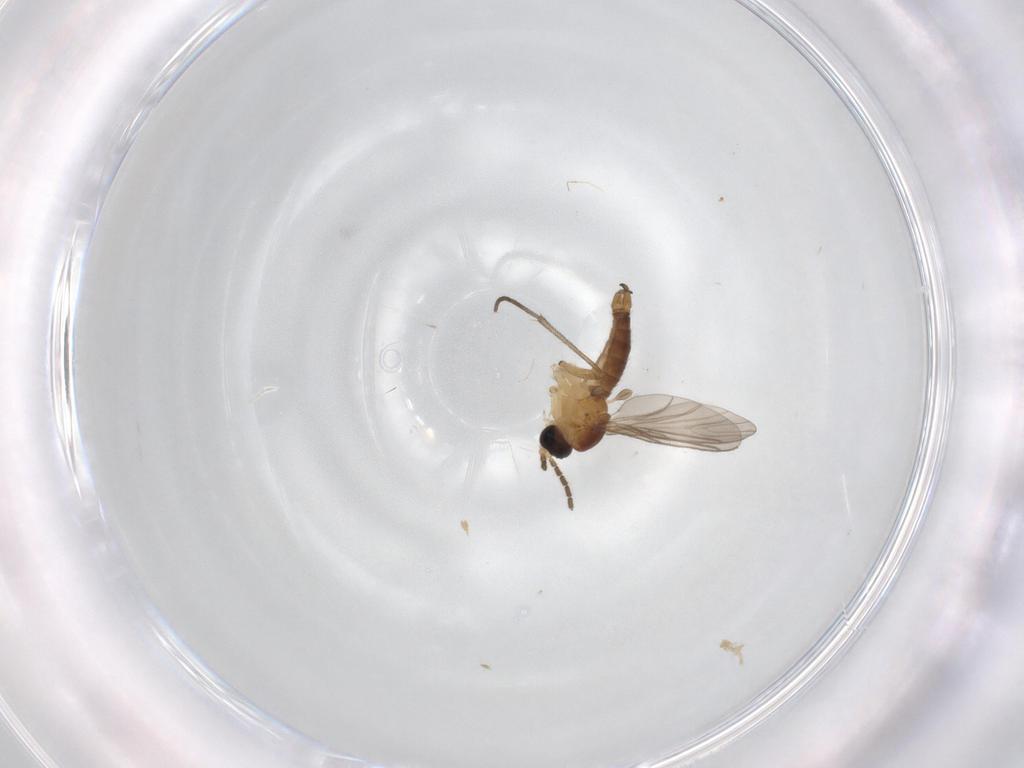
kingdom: Animalia
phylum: Arthropoda
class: Insecta
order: Diptera
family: Sciaridae
